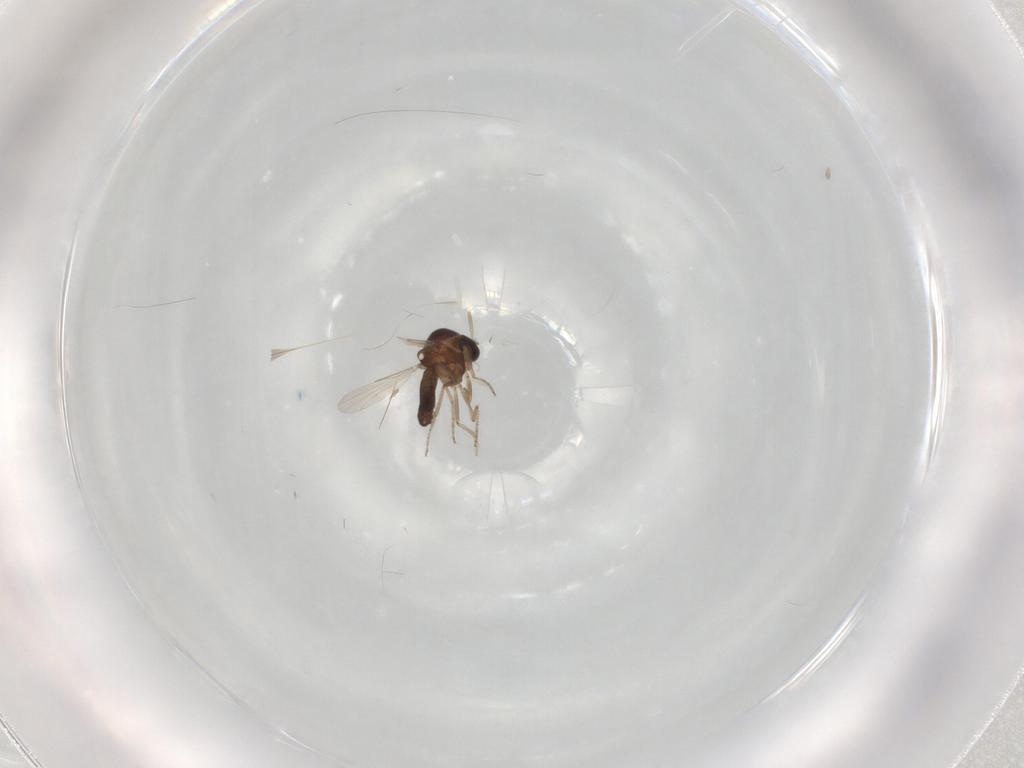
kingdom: Animalia
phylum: Arthropoda
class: Insecta
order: Diptera
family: Ceratopogonidae
